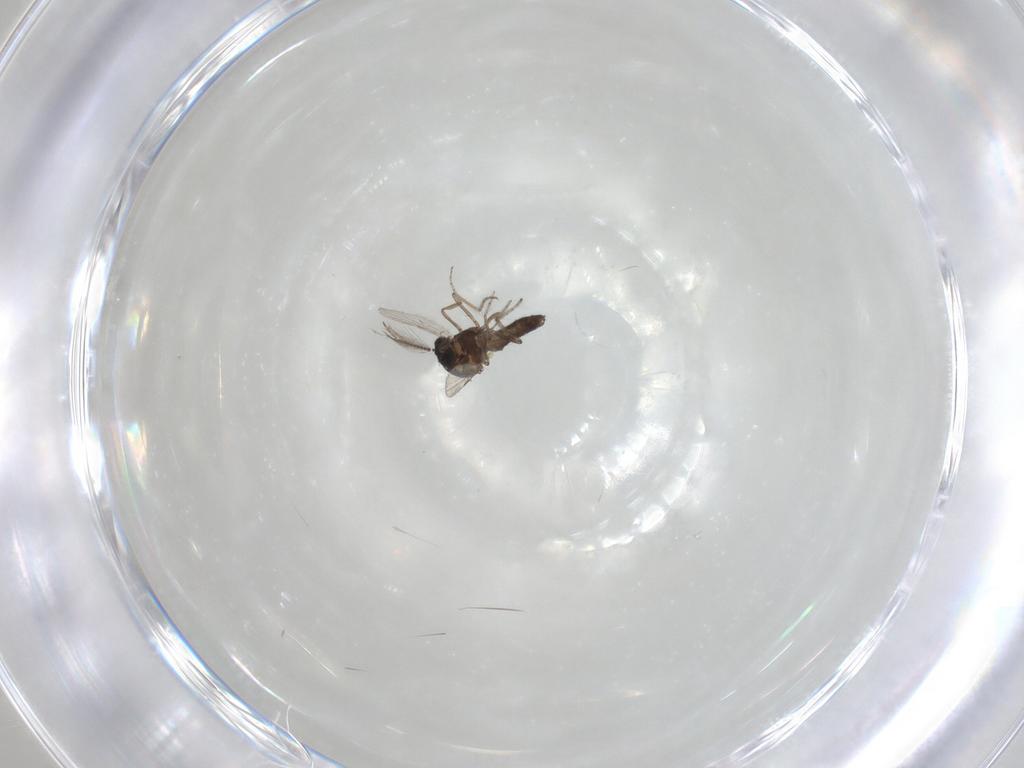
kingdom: Animalia
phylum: Arthropoda
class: Insecta
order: Diptera
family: Ceratopogonidae
